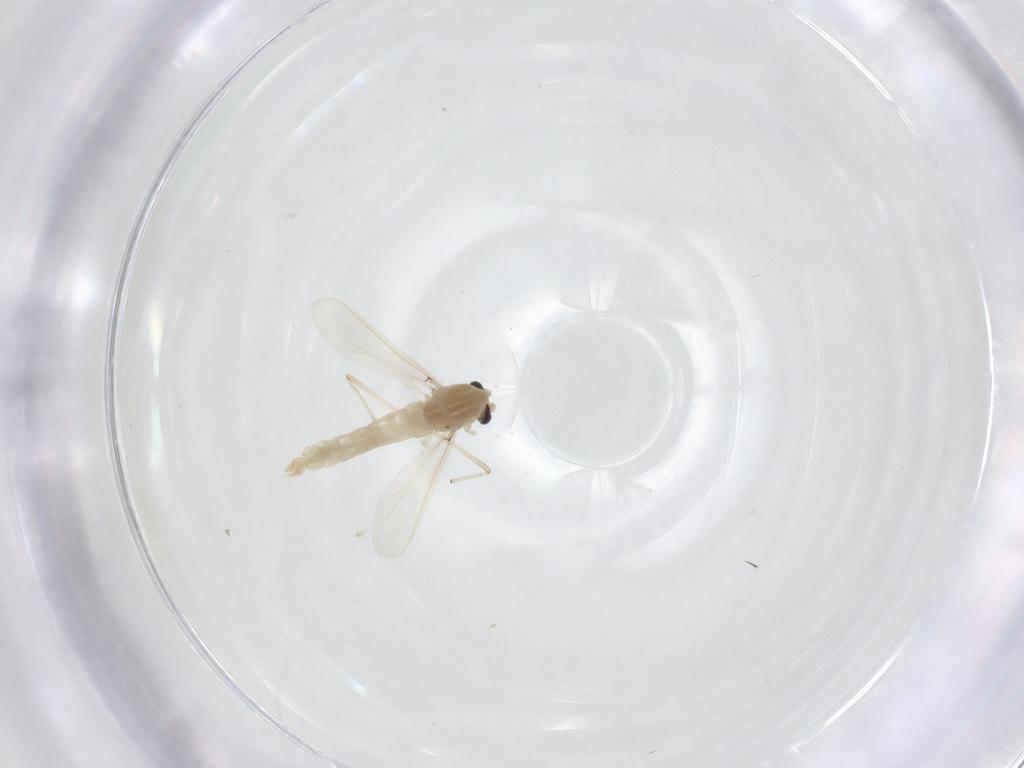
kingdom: Animalia
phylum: Arthropoda
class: Insecta
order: Diptera
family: Chironomidae
